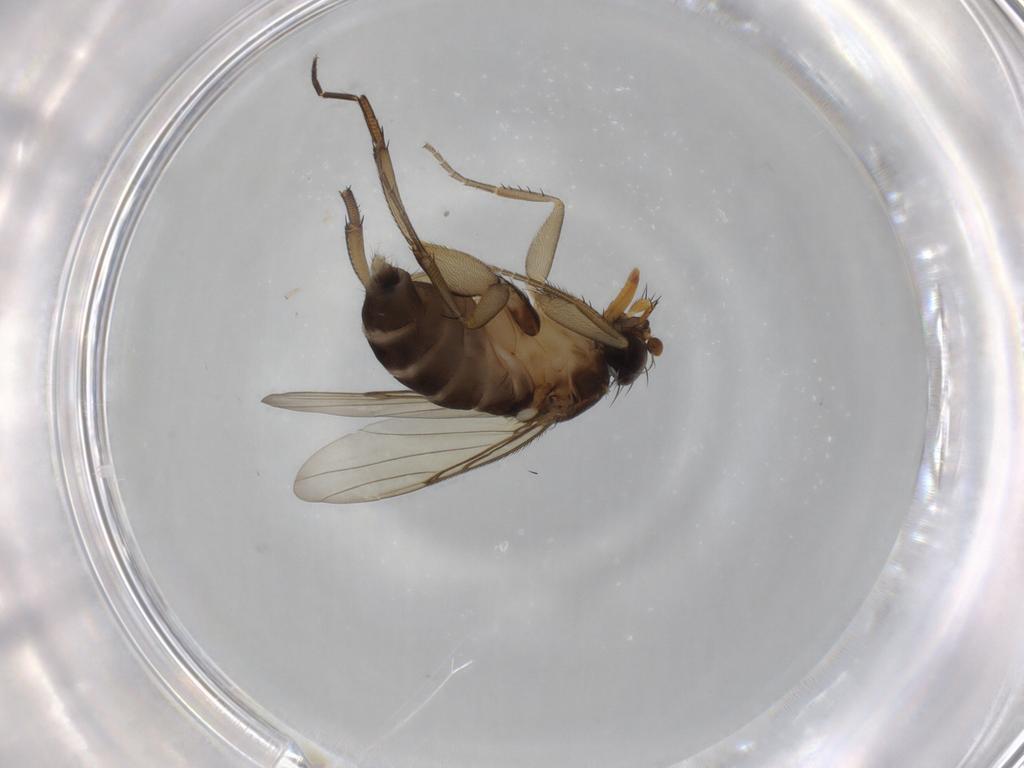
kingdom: Animalia
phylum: Arthropoda
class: Insecta
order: Diptera
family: Phoridae
